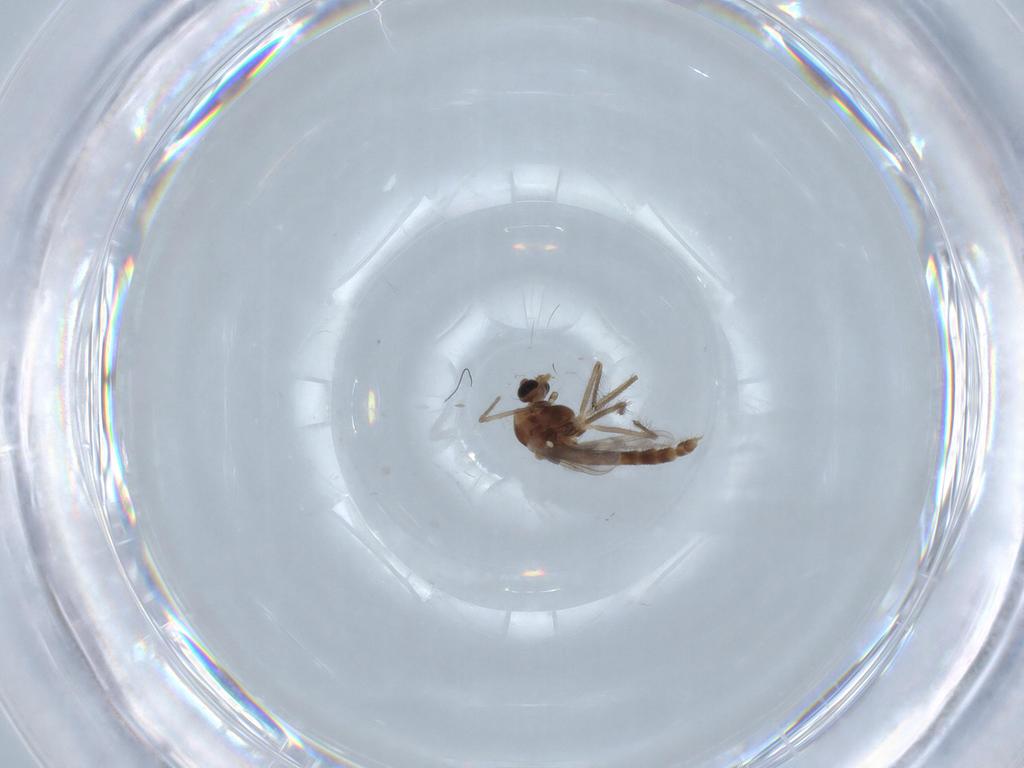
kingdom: Animalia
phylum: Arthropoda
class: Insecta
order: Diptera
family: Chironomidae
